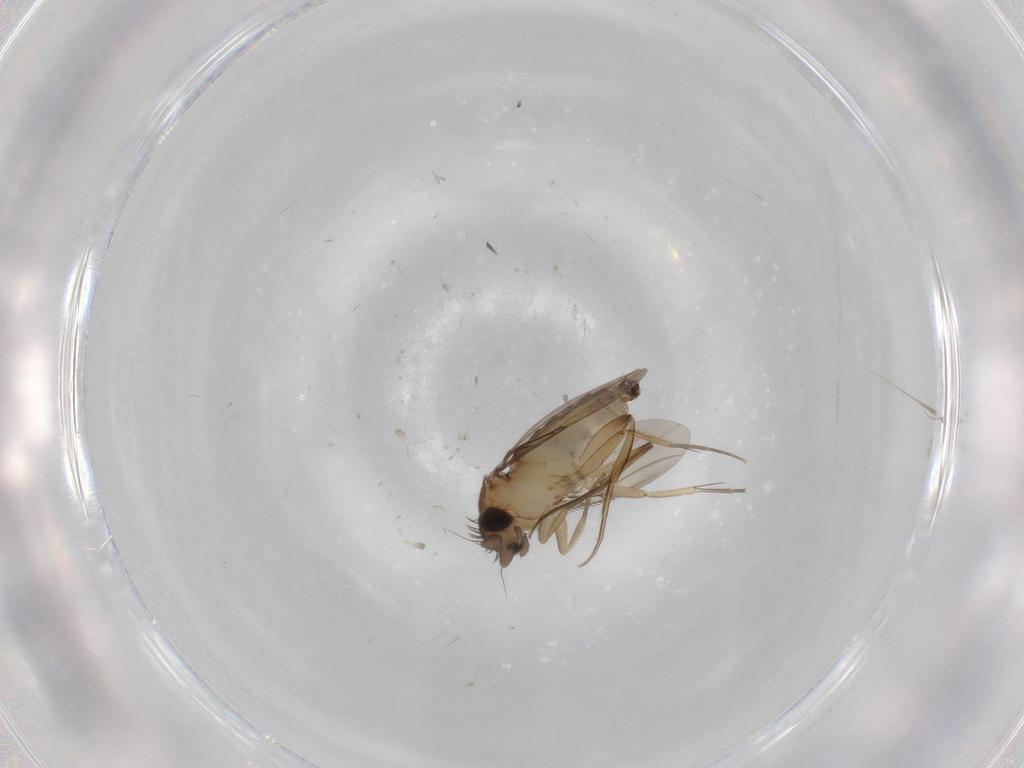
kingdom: Animalia
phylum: Arthropoda
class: Insecta
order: Diptera
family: Phoridae
